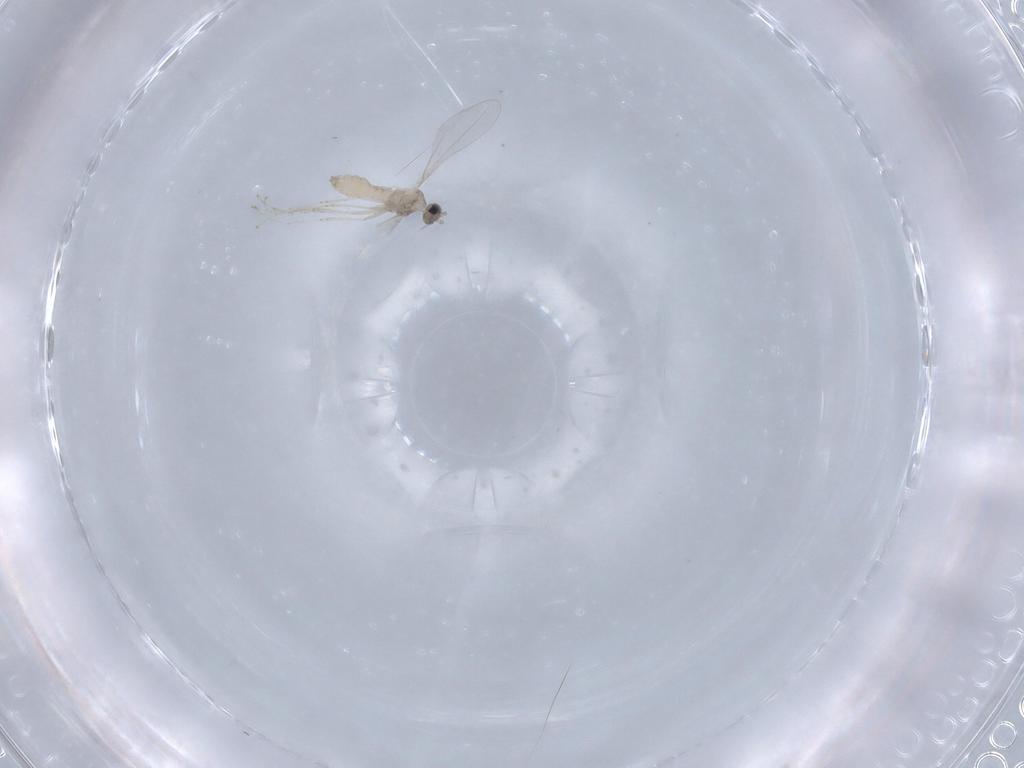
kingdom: Animalia
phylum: Arthropoda
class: Insecta
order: Diptera
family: Cecidomyiidae
